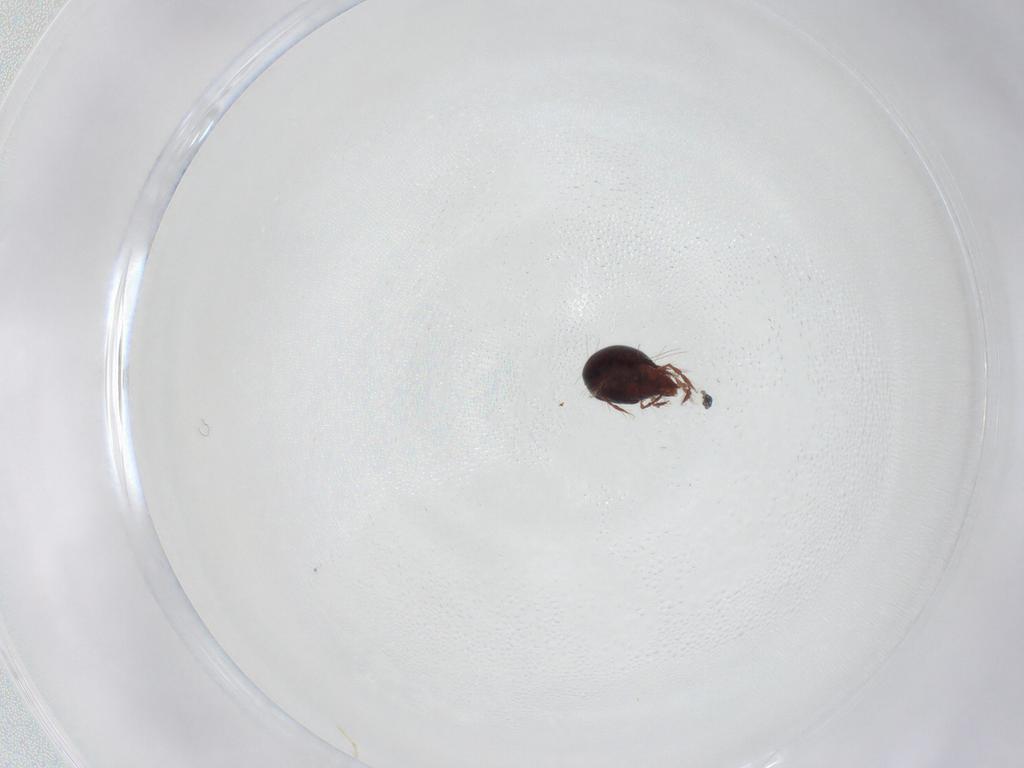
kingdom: Animalia
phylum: Arthropoda
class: Arachnida
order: Sarcoptiformes
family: Ceratoppiidae
